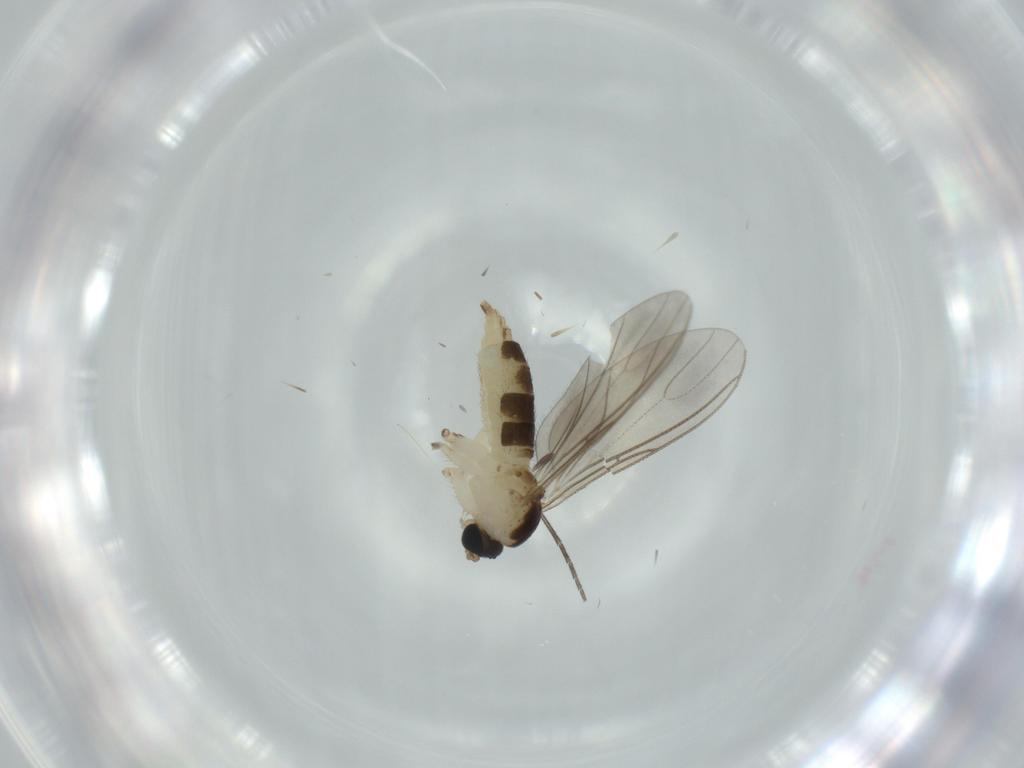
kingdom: Animalia
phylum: Arthropoda
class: Insecta
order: Diptera
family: Sciaridae
